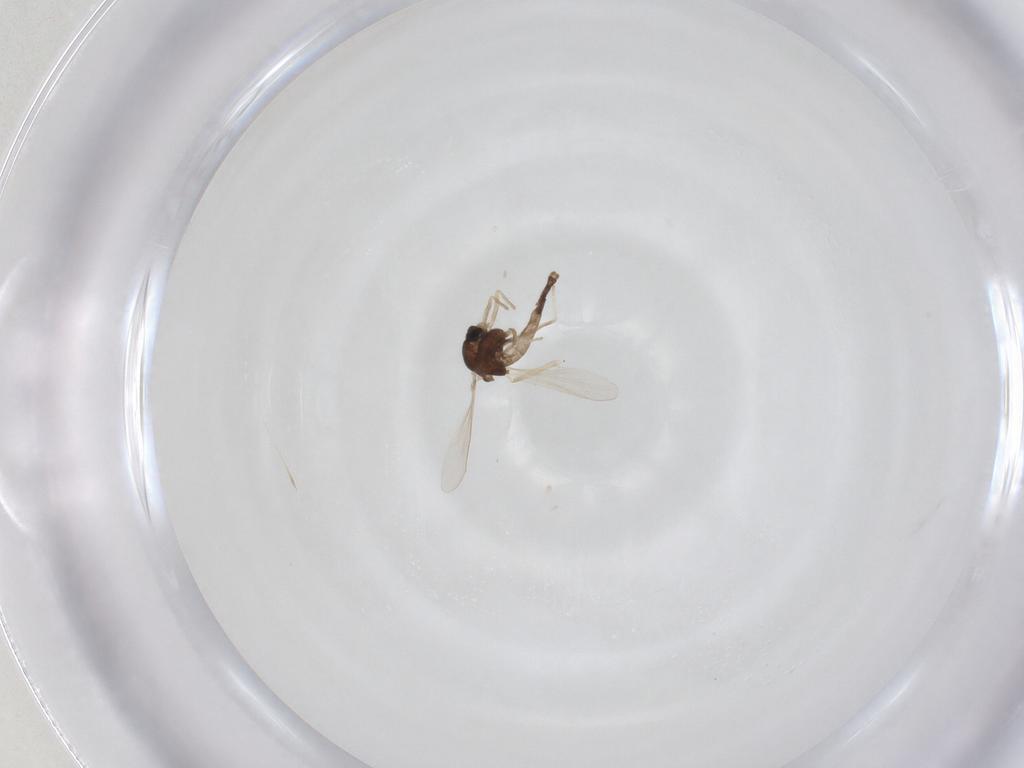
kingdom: Animalia
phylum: Arthropoda
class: Insecta
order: Diptera
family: Chironomidae
